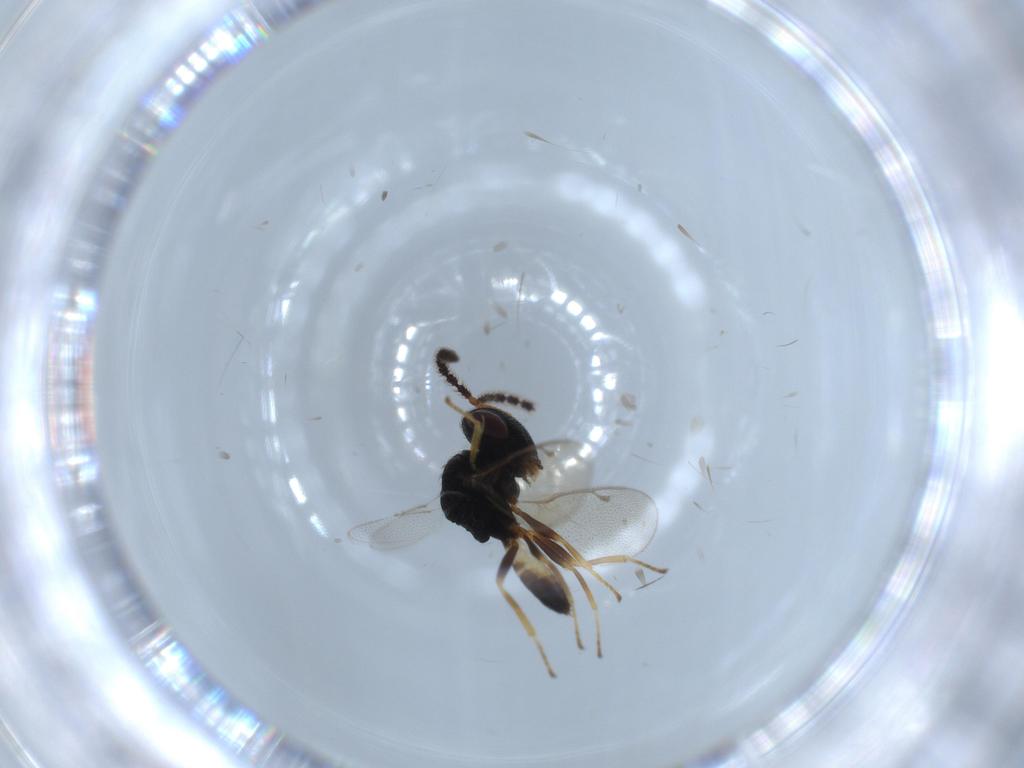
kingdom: Animalia
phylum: Arthropoda
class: Insecta
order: Hymenoptera
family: Pteromalidae
